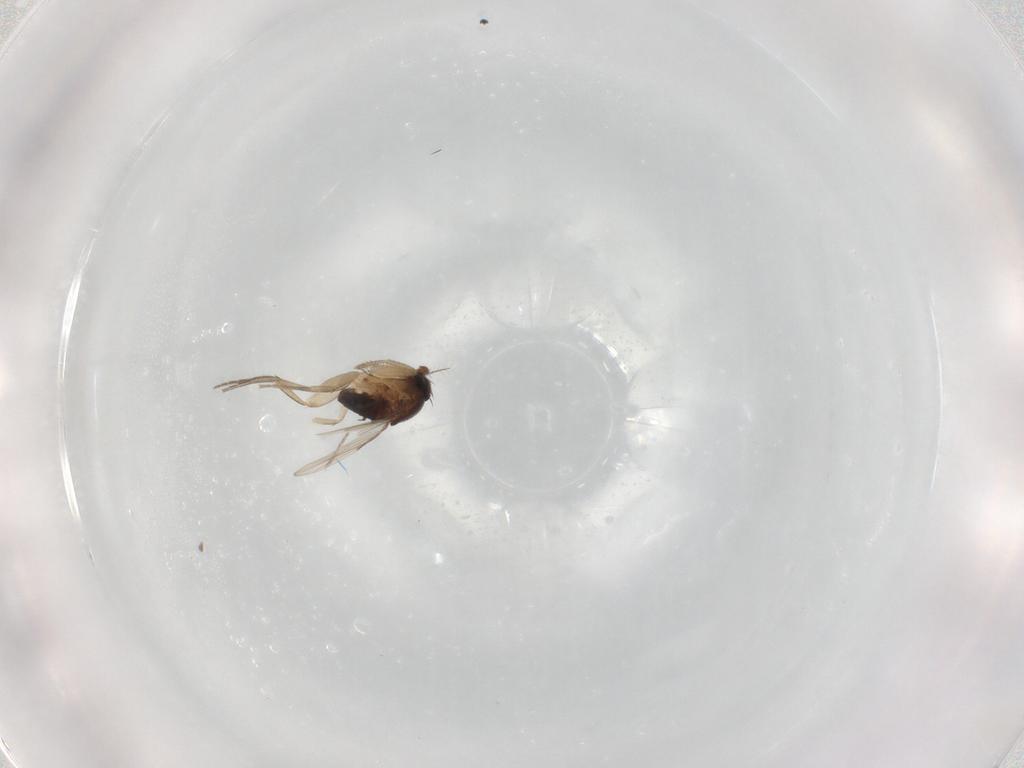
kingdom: Animalia
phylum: Arthropoda
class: Insecta
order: Diptera
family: Phoridae
